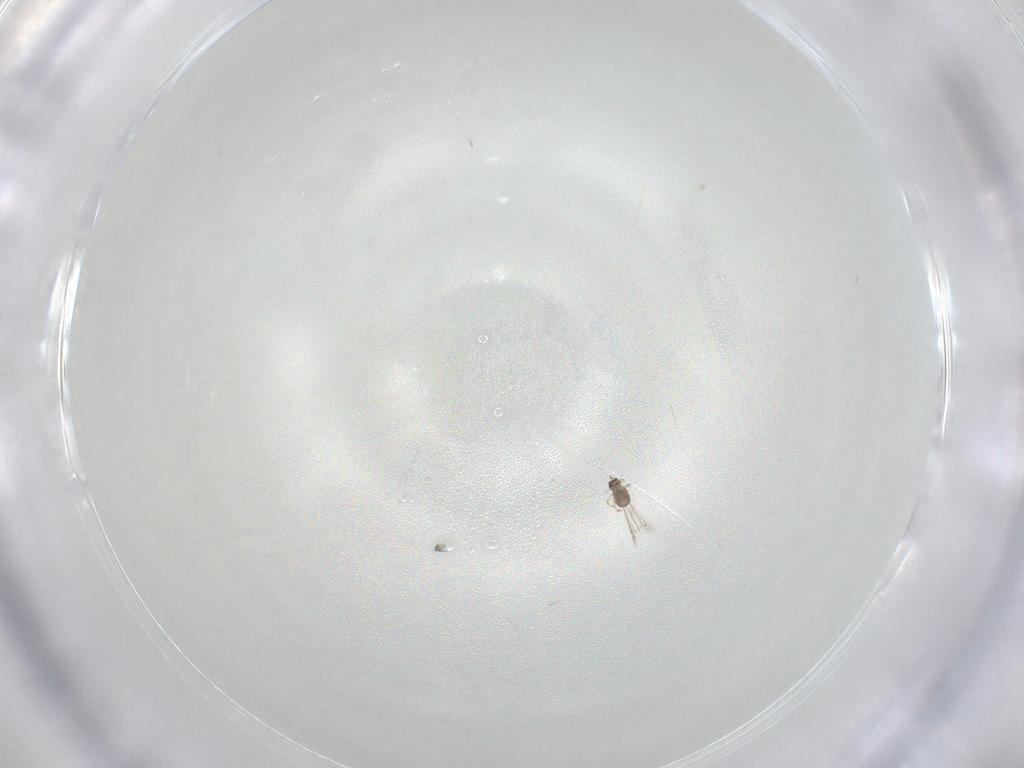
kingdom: Animalia
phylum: Arthropoda
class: Insecta
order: Hymenoptera
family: Formicidae
